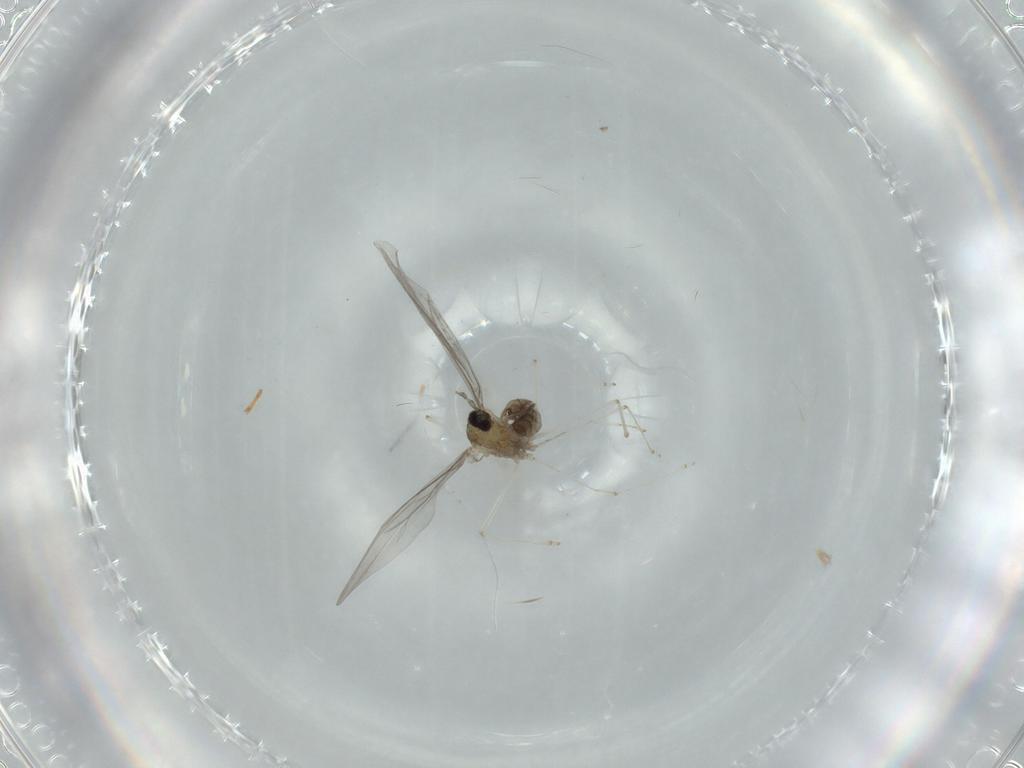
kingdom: Animalia
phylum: Arthropoda
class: Insecta
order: Diptera
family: Cecidomyiidae
